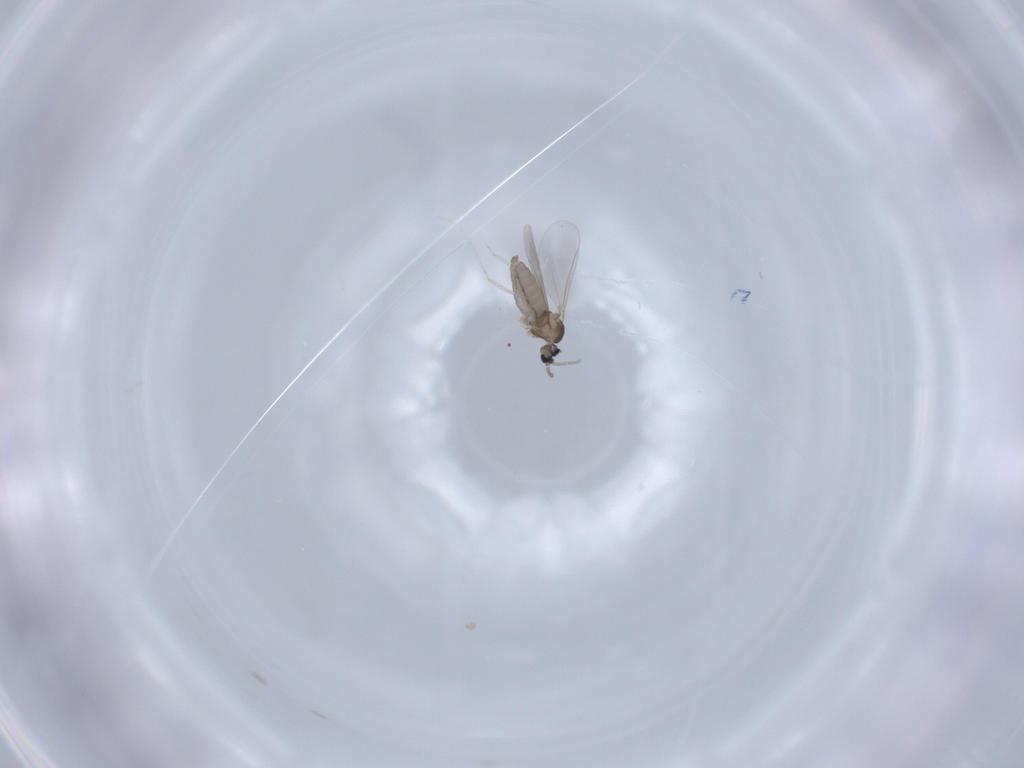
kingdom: Animalia
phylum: Arthropoda
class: Insecta
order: Diptera
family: Cecidomyiidae
